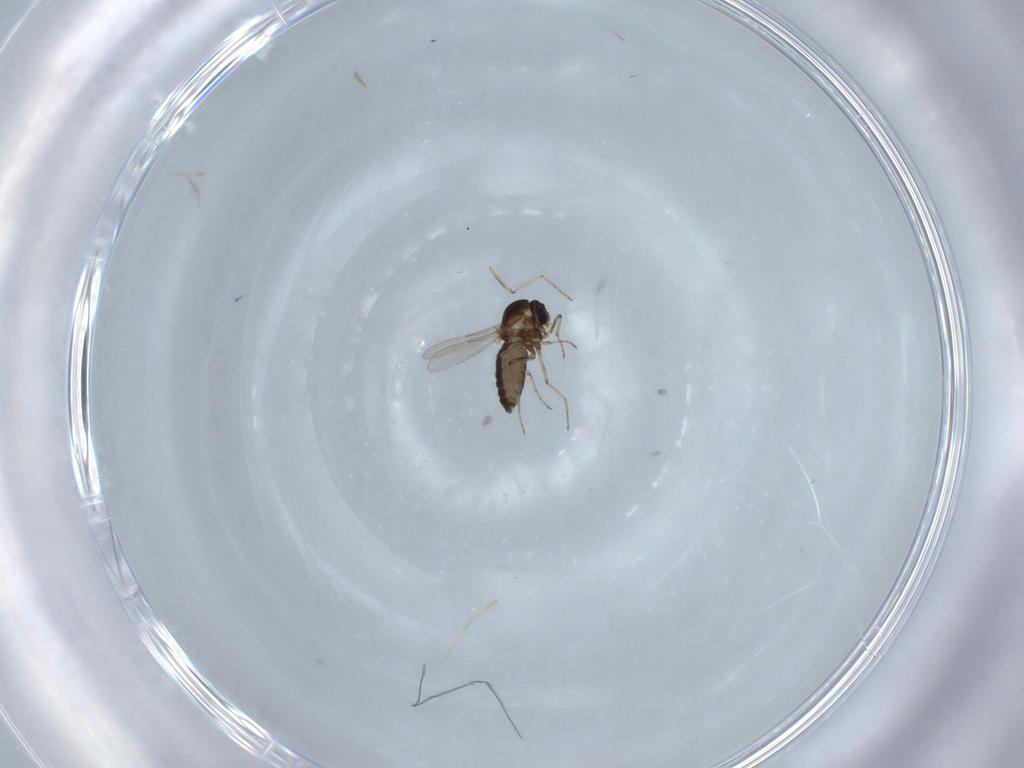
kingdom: Animalia
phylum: Arthropoda
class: Insecta
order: Diptera
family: Ceratopogonidae
